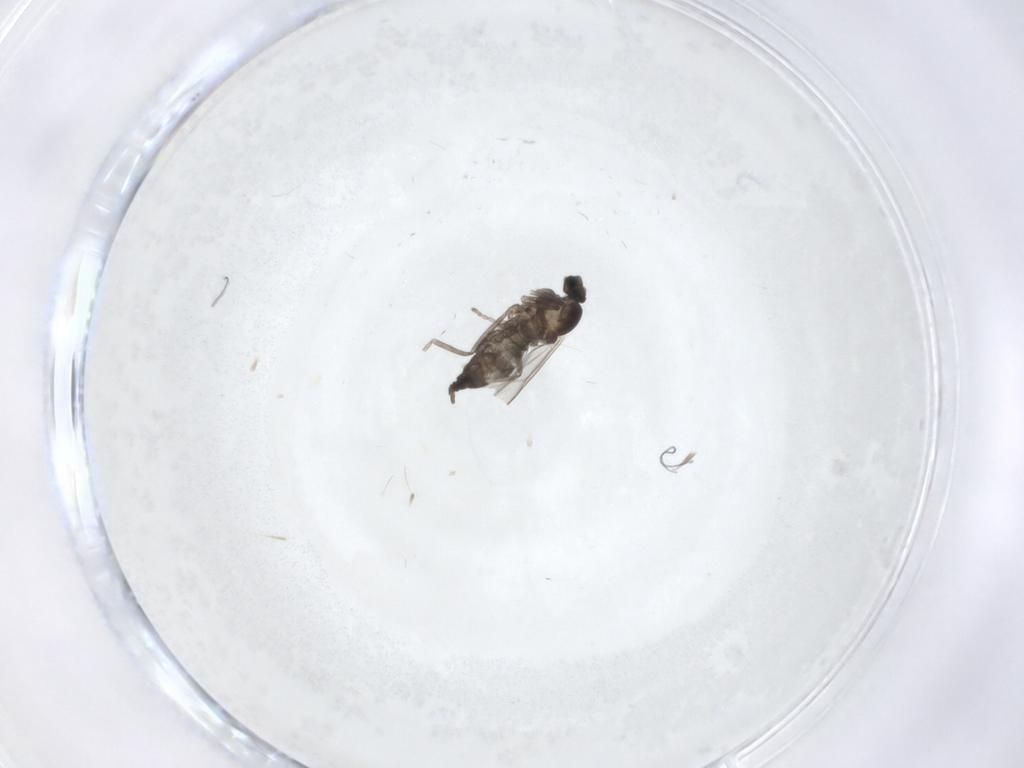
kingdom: Animalia
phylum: Arthropoda
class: Insecta
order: Diptera
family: Cecidomyiidae
